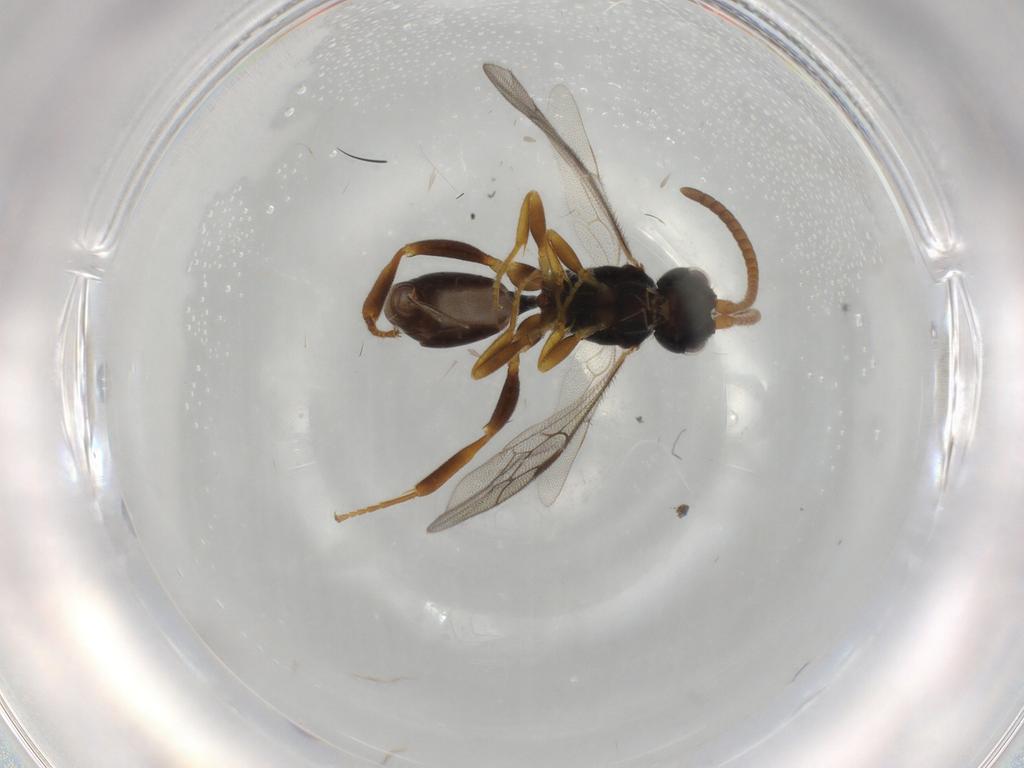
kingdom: Animalia
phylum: Arthropoda
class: Insecta
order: Hymenoptera
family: Ichneumonidae
